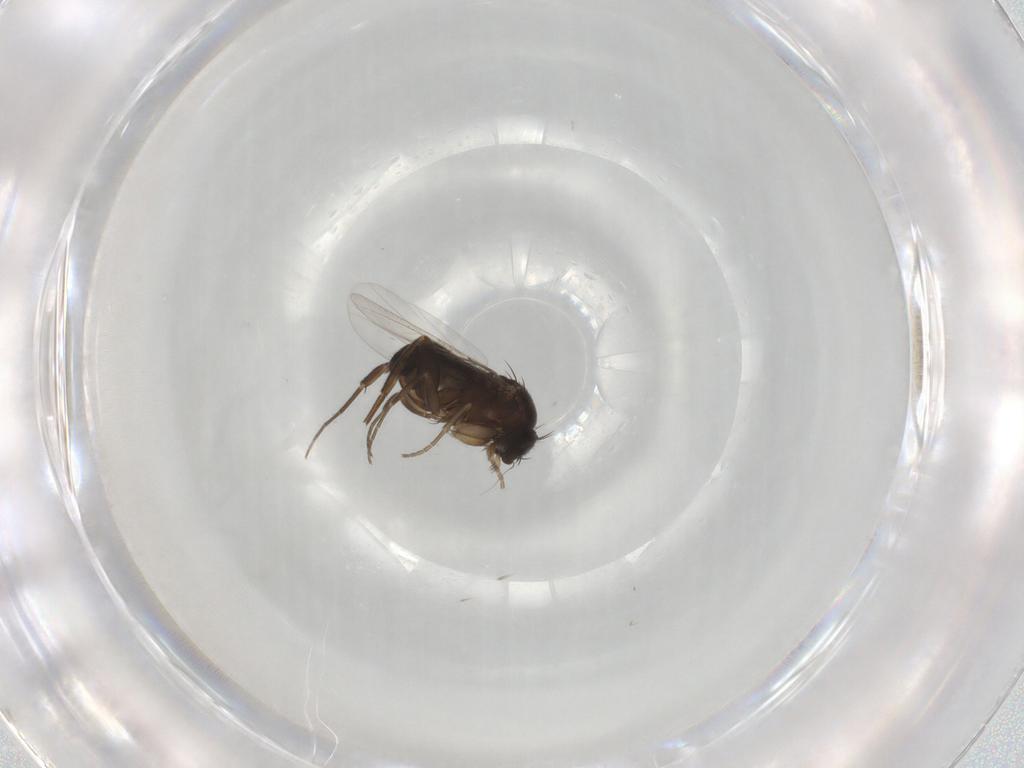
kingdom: Animalia
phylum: Arthropoda
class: Insecta
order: Diptera
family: Phoridae
